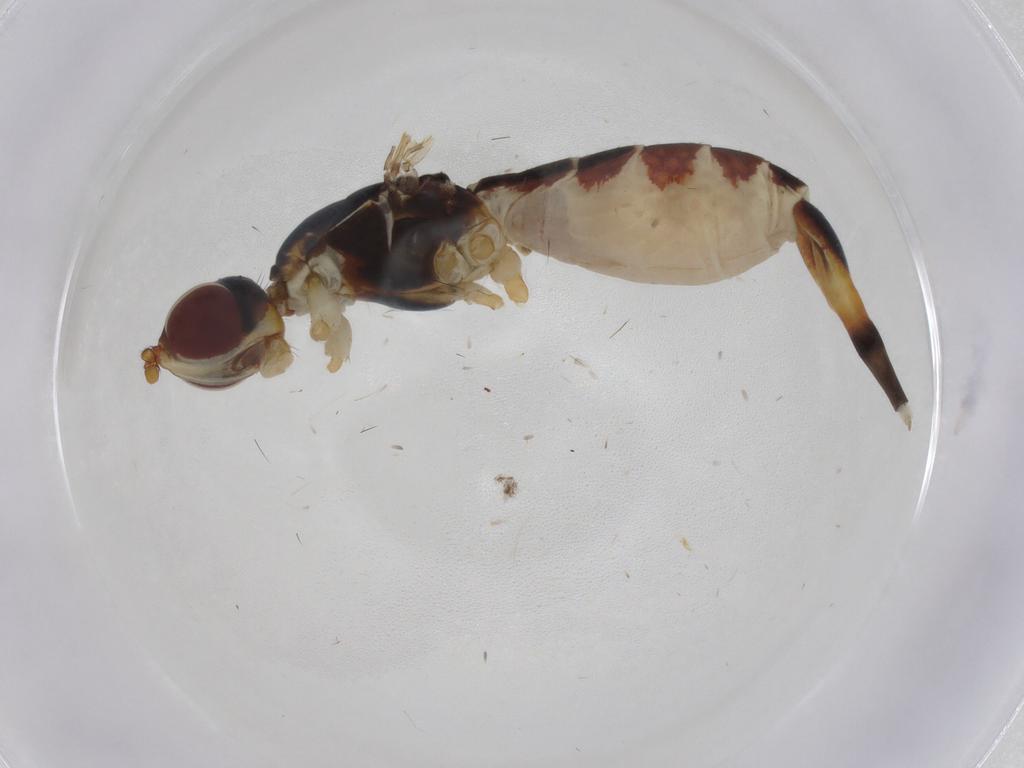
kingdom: Animalia
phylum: Arthropoda
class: Insecta
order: Diptera
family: Micropezidae
